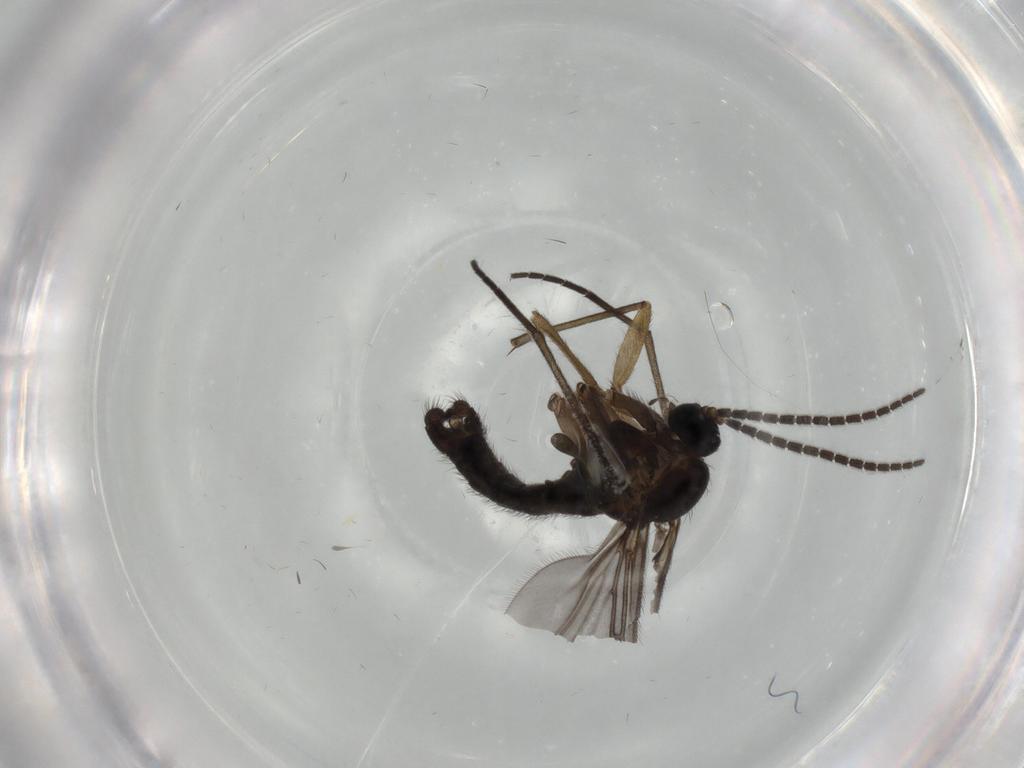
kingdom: Animalia
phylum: Arthropoda
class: Insecta
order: Diptera
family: Sciaridae
